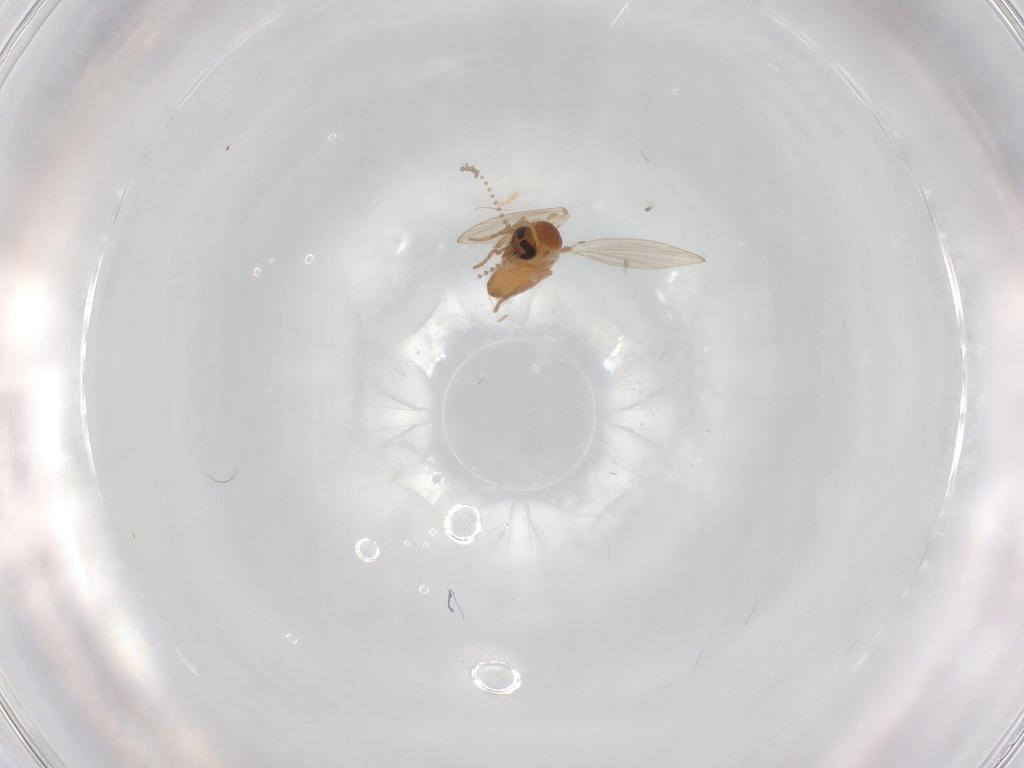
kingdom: Animalia
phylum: Arthropoda
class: Insecta
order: Diptera
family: Psychodidae
